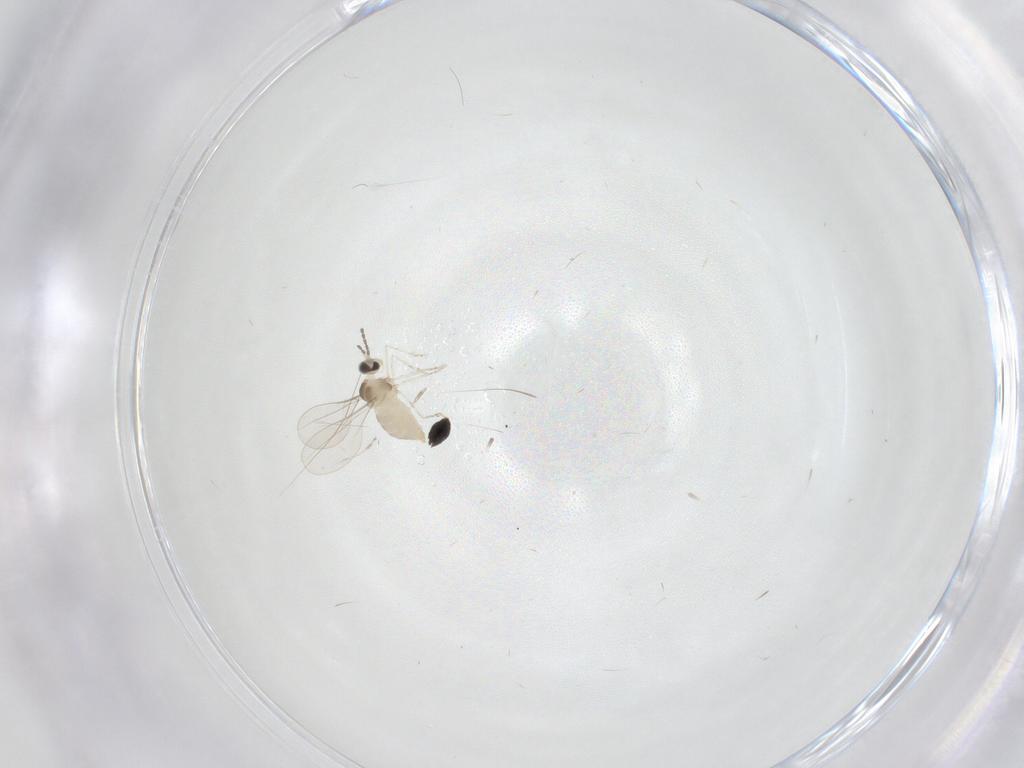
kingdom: Animalia
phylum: Arthropoda
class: Insecta
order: Diptera
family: Cecidomyiidae
